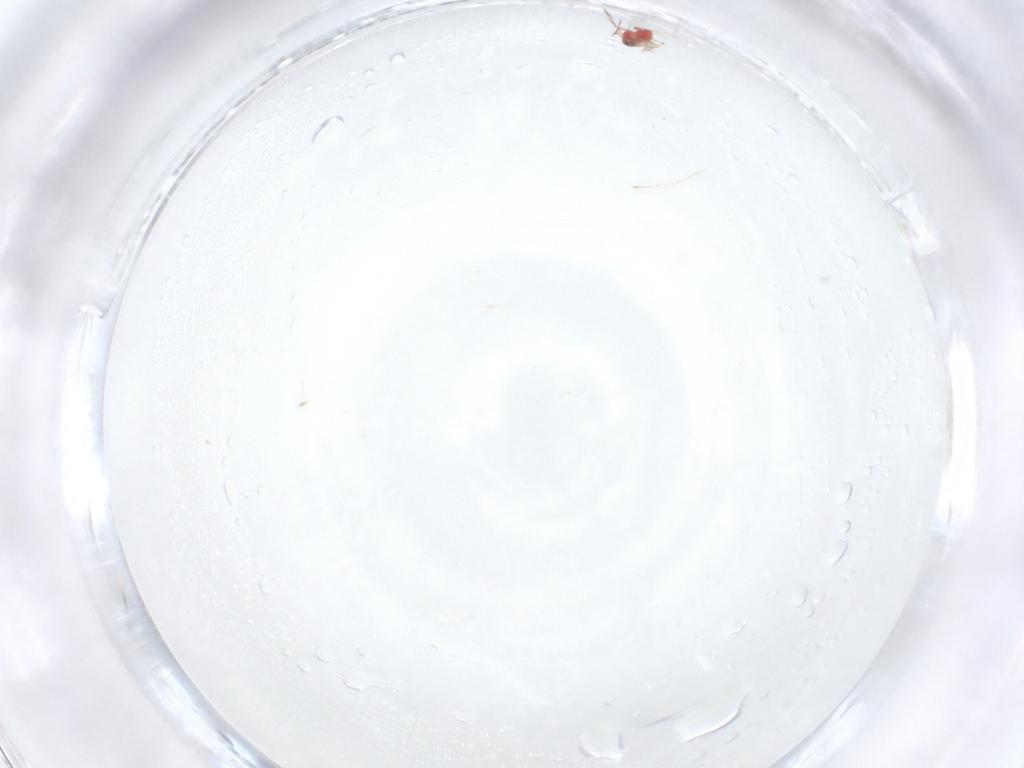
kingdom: Animalia
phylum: Arthropoda
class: Insecta
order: Hymenoptera
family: Trichogrammatidae
